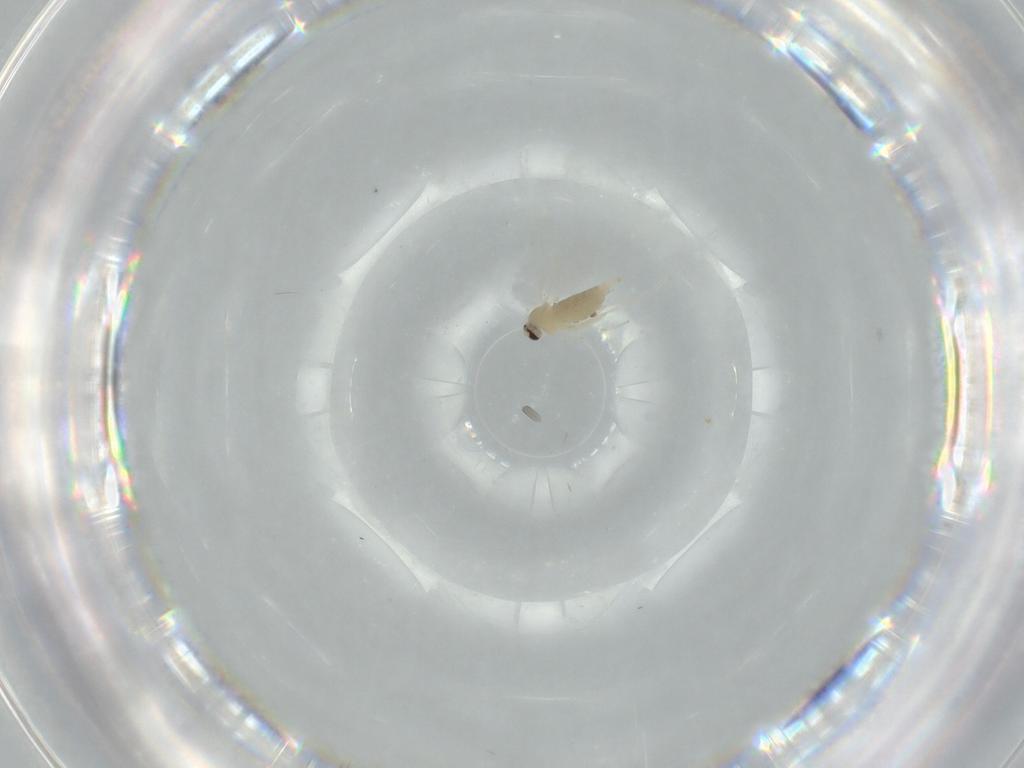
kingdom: Animalia
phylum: Arthropoda
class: Insecta
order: Diptera
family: Cecidomyiidae
